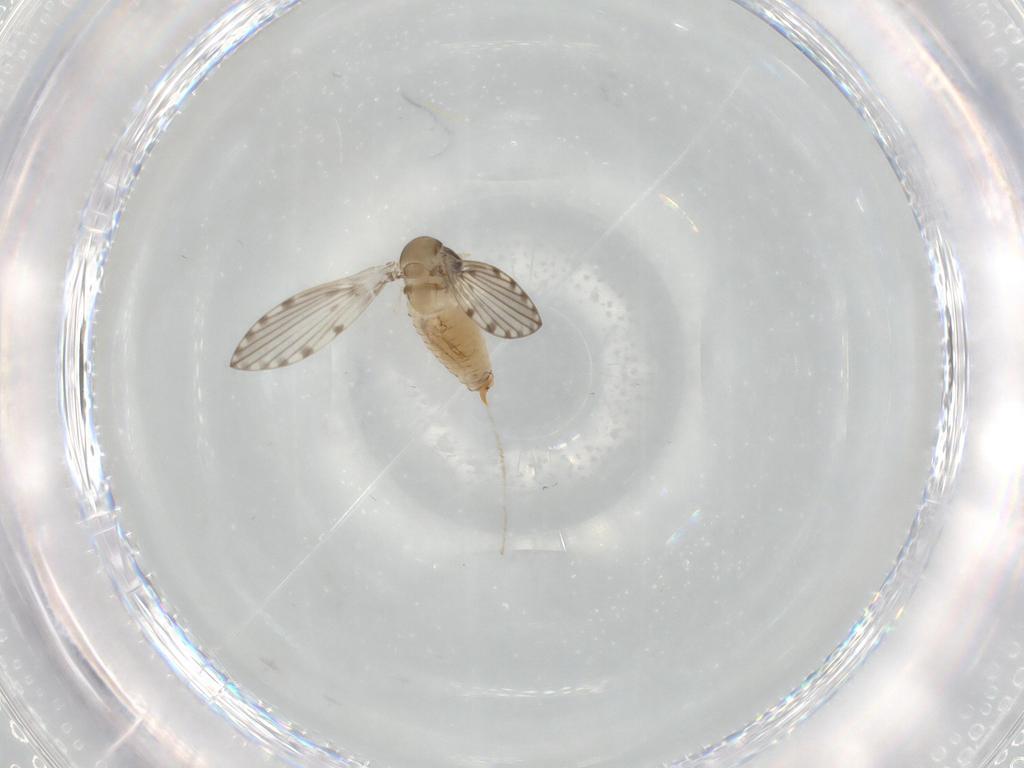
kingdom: Animalia
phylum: Arthropoda
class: Insecta
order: Diptera
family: Psychodidae
